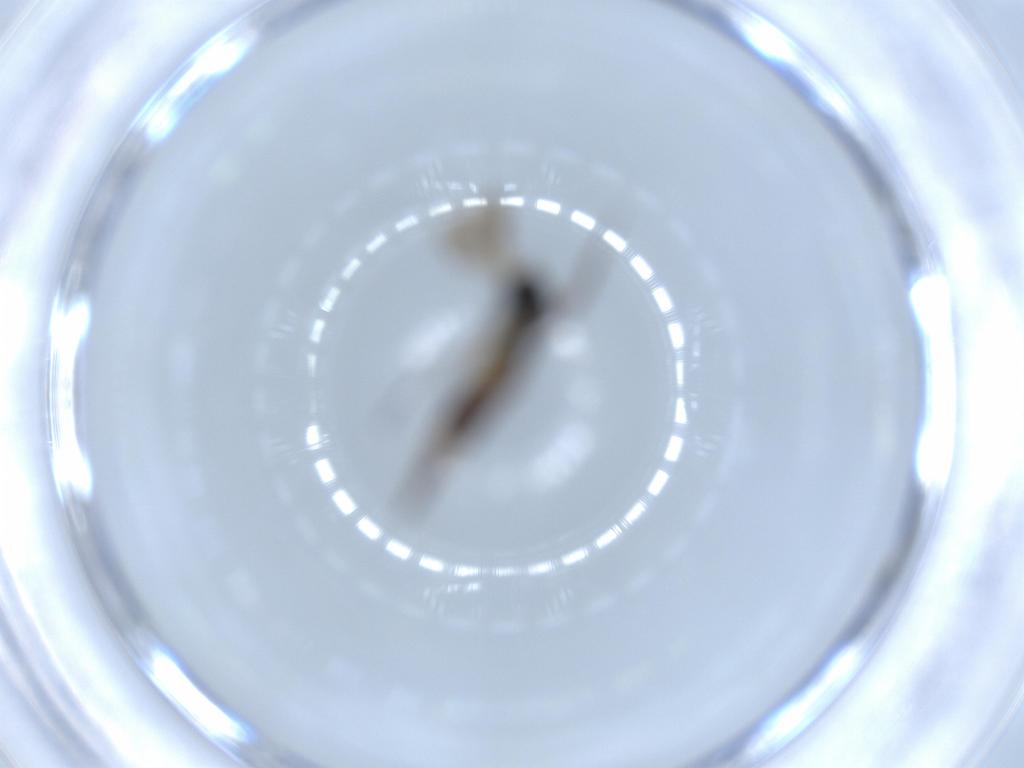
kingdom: Animalia
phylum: Arthropoda
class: Insecta
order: Diptera
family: Sciaridae
